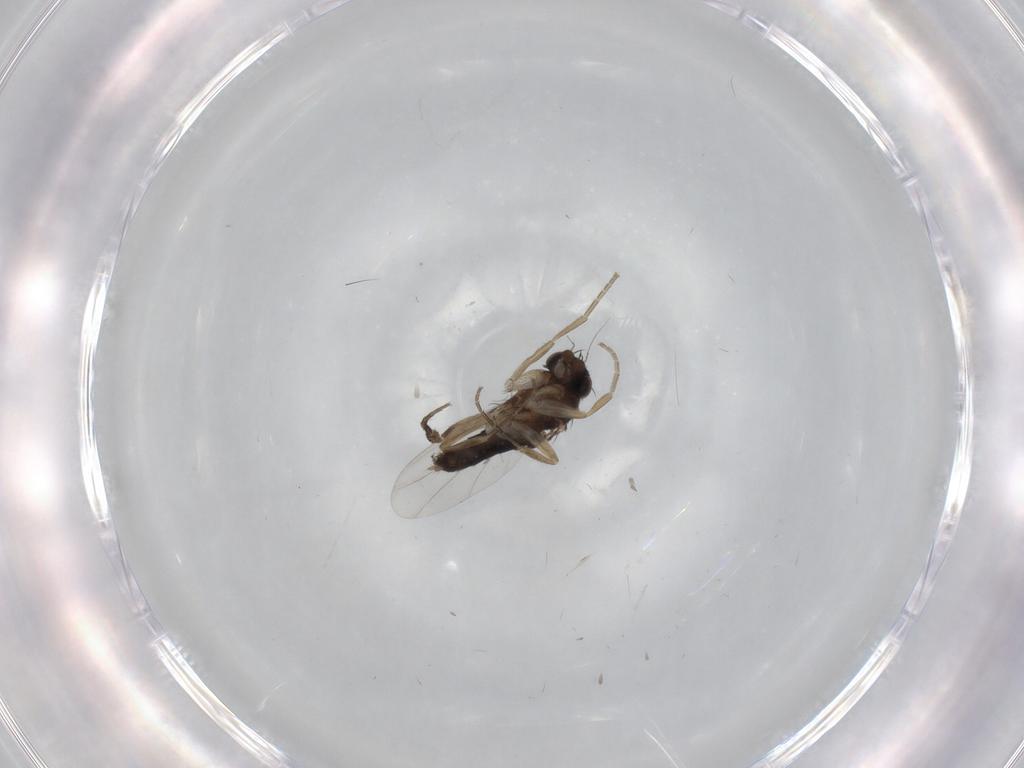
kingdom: Animalia
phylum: Arthropoda
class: Insecta
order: Diptera
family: Phoridae
